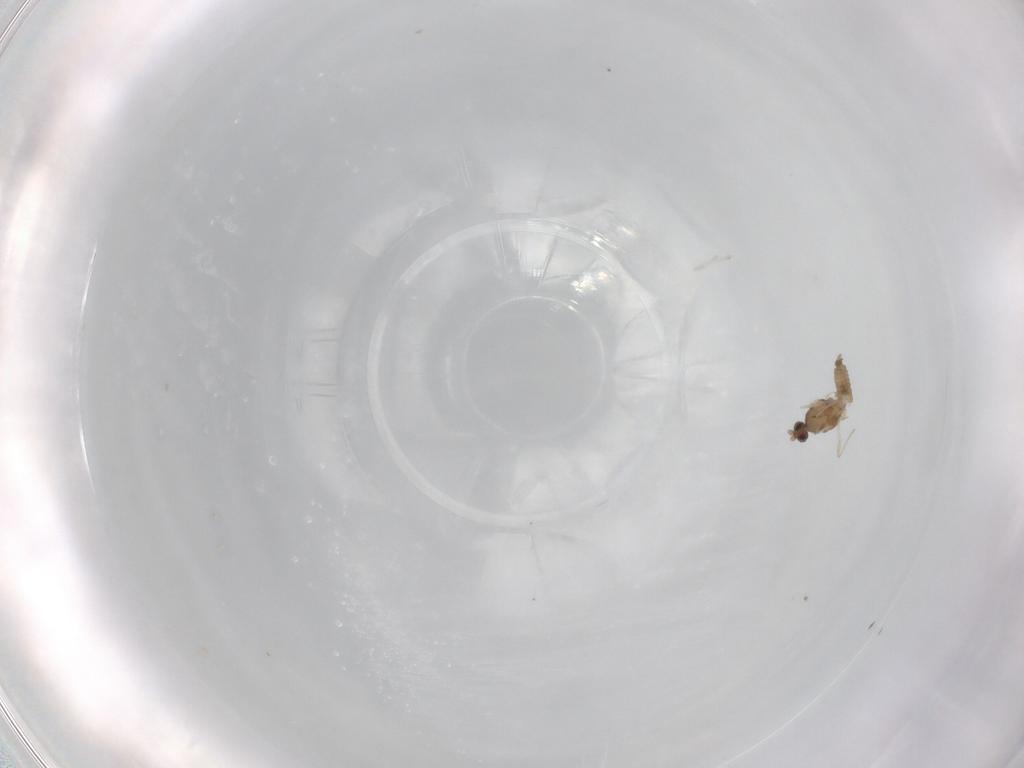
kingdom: Animalia
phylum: Arthropoda
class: Insecta
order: Diptera
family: Cecidomyiidae
